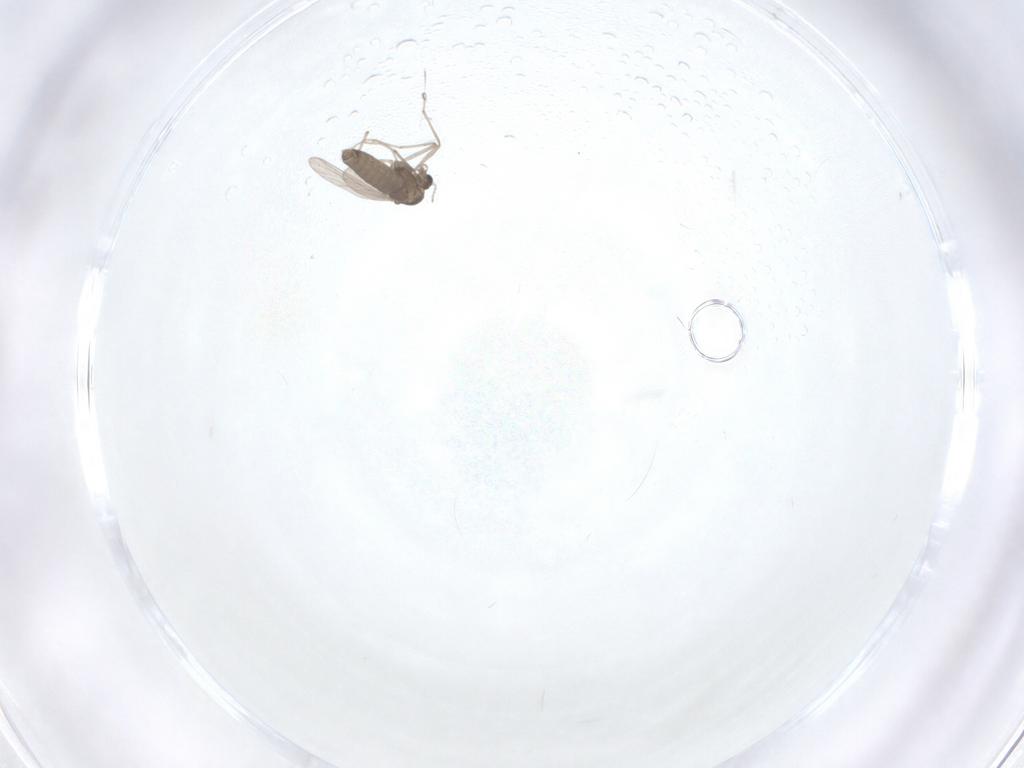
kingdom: Animalia
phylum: Arthropoda
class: Insecta
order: Diptera
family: Chironomidae
